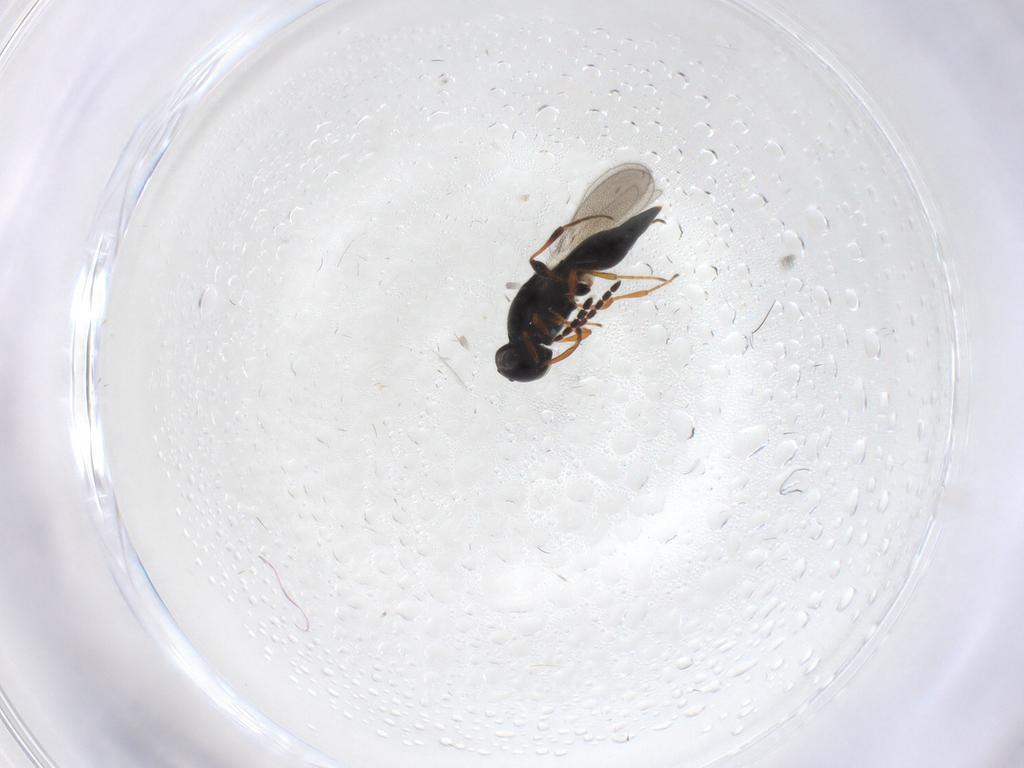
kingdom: Animalia
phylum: Arthropoda
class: Insecta
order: Hymenoptera
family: Platygastridae
